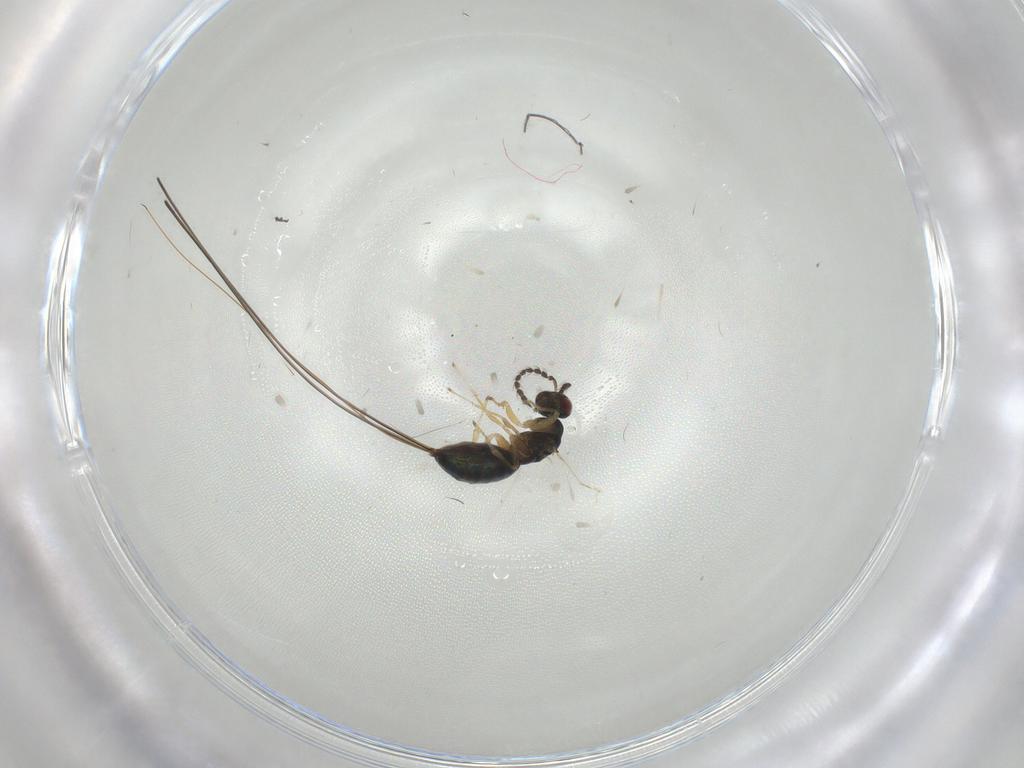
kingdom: Animalia
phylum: Arthropoda
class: Insecta
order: Hymenoptera
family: Formicidae
